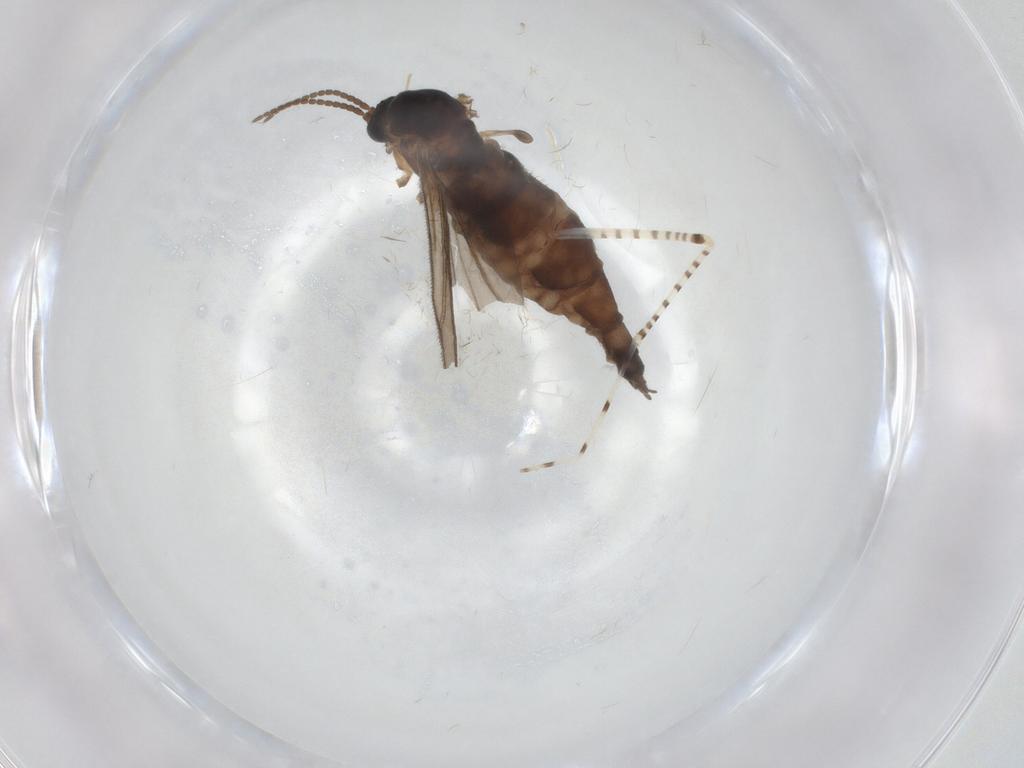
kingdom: Animalia
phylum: Arthropoda
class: Insecta
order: Diptera
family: Sciaridae
